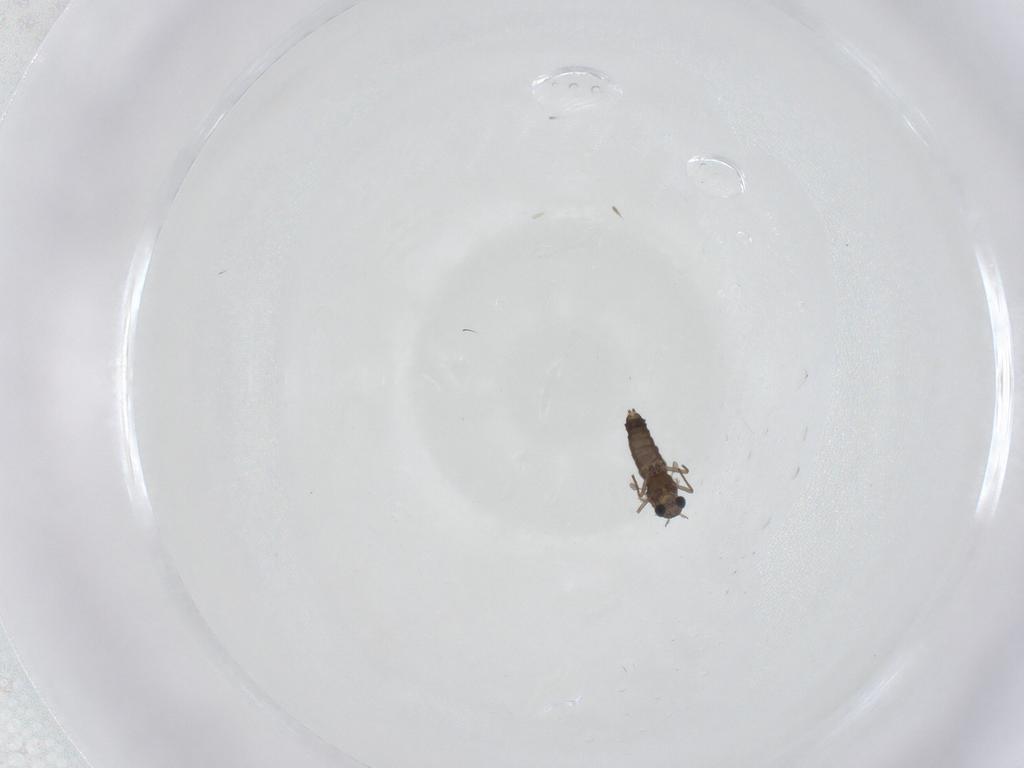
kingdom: Animalia
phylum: Arthropoda
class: Insecta
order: Diptera
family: Chironomidae
